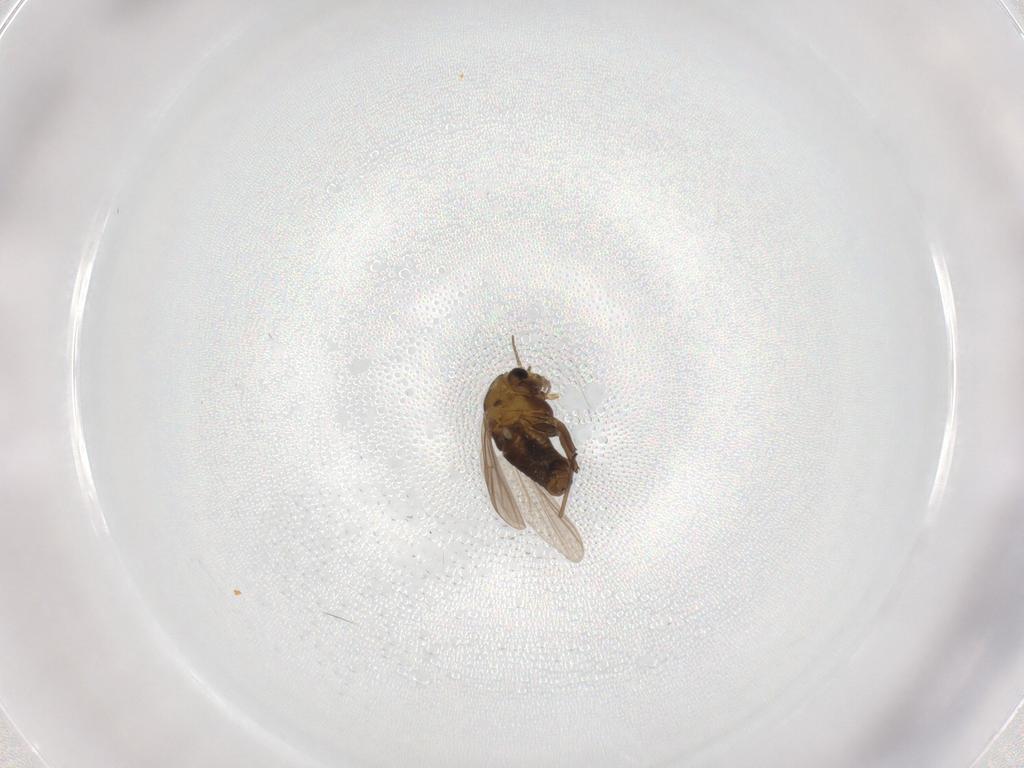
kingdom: Animalia
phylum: Arthropoda
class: Insecta
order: Diptera
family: Chironomidae
